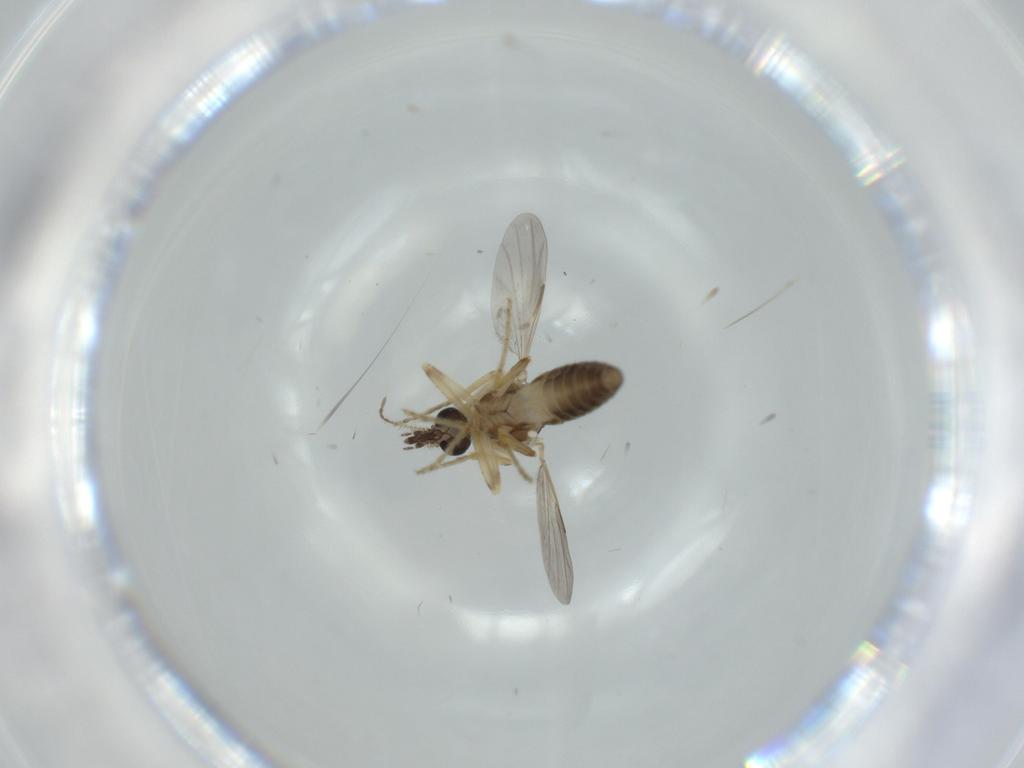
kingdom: Animalia
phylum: Arthropoda
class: Insecta
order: Diptera
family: Ceratopogonidae
